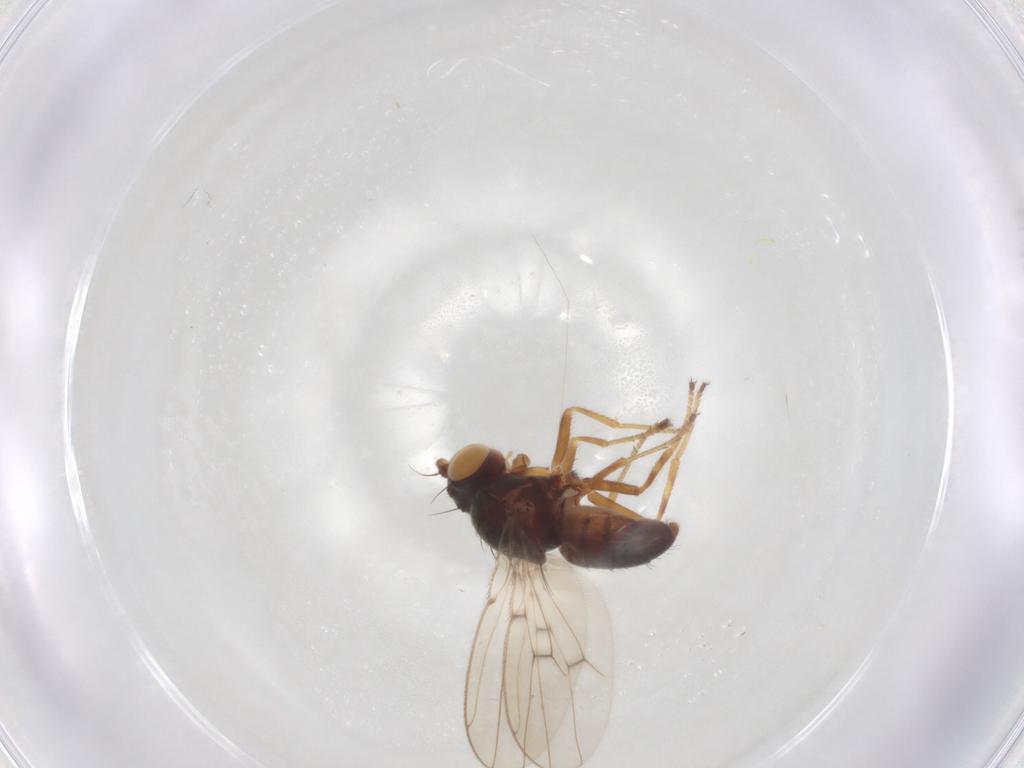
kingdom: Animalia
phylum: Arthropoda
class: Insecta
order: Diptera
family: Ephydridae
